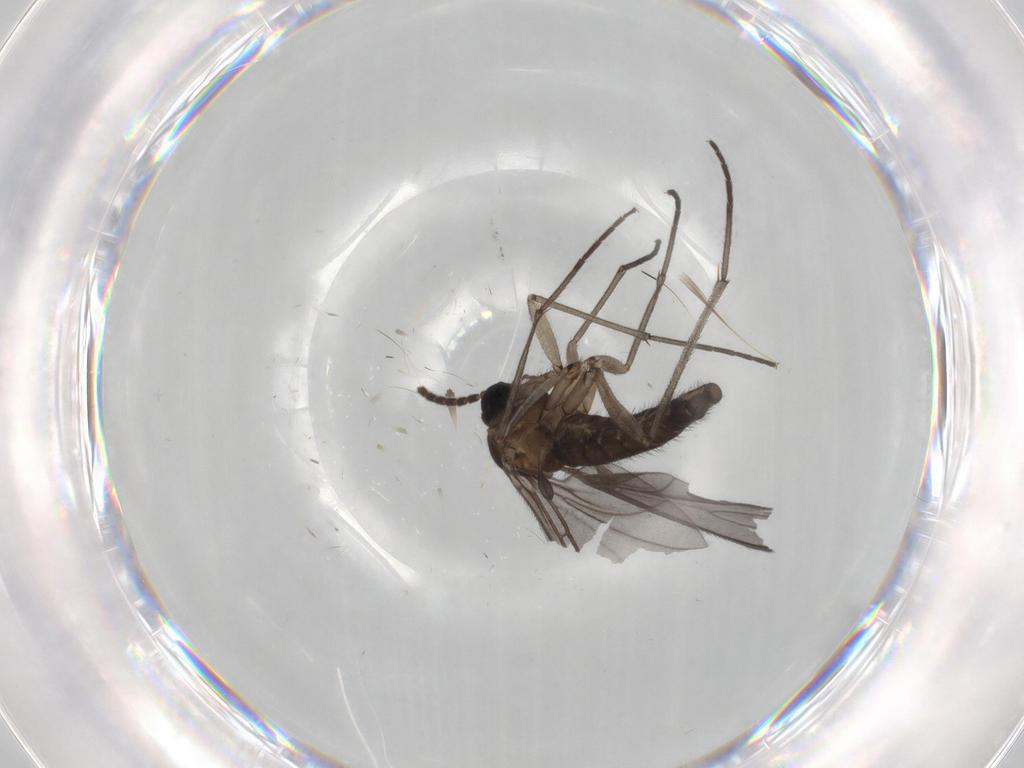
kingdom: Animalia
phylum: Arthropoda
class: Insecta
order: Diptera
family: Sciaridae
